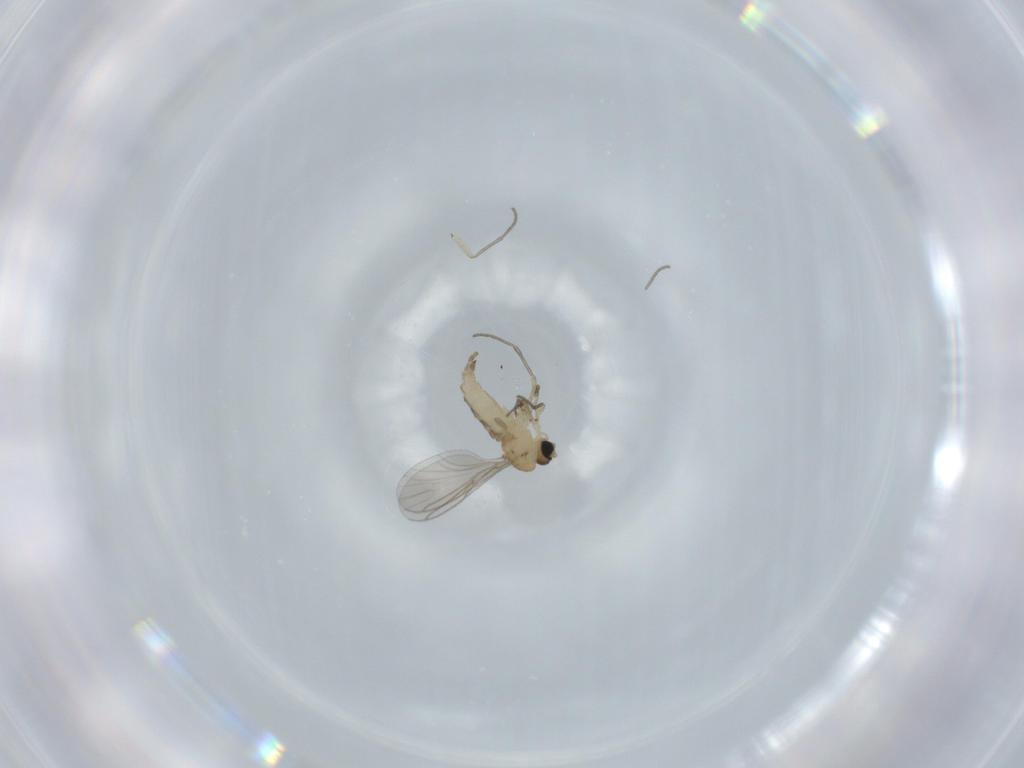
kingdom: Animalia
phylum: Arthropoda
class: Insecta
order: Diptera
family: Sciaridae
